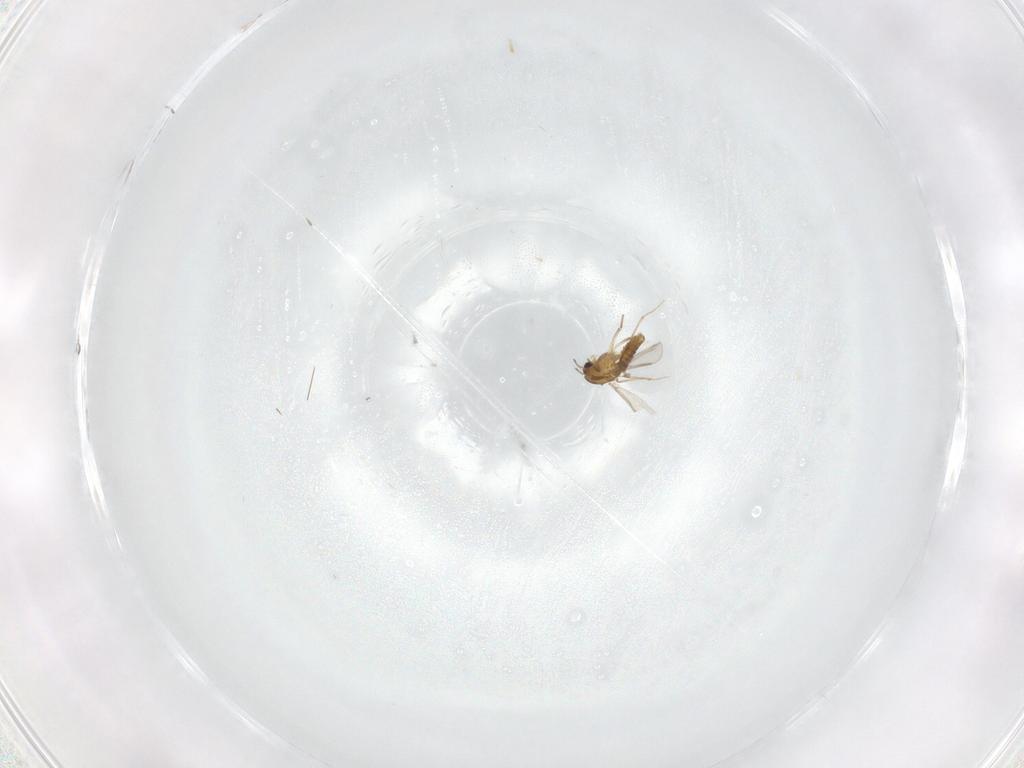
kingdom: Animalia
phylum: Arthropoda
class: Insecta
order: Diptera
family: Chironomidae
